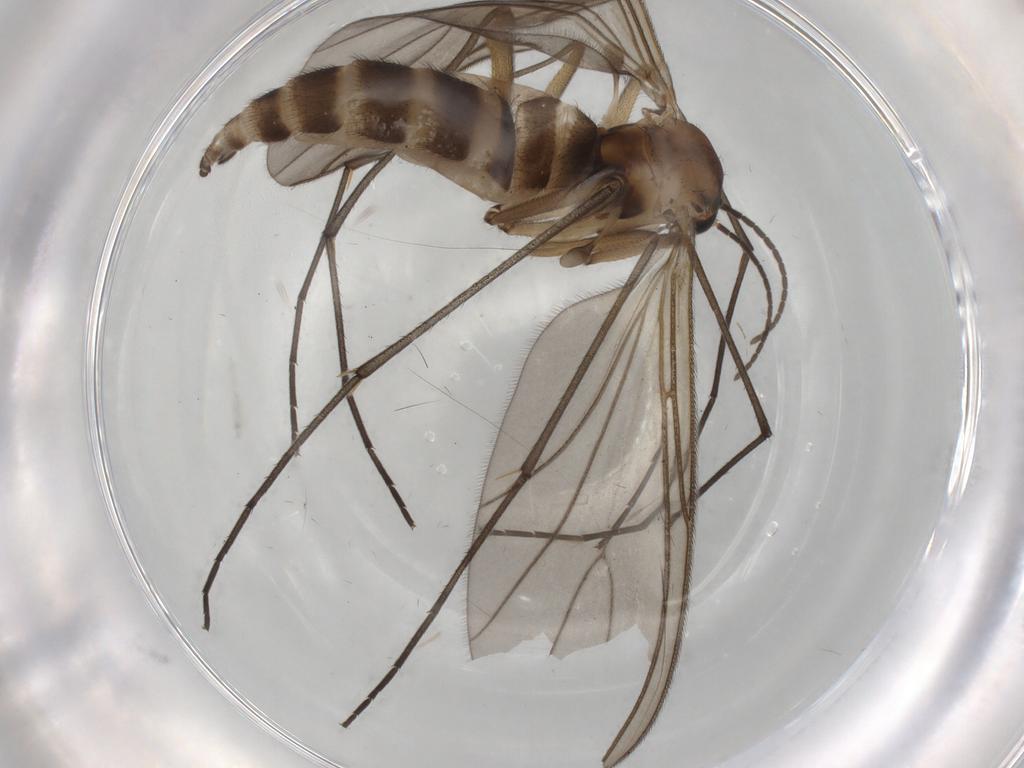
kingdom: Animalia
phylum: Arthropoda
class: Insecta
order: Diptera
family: Sciaridae
